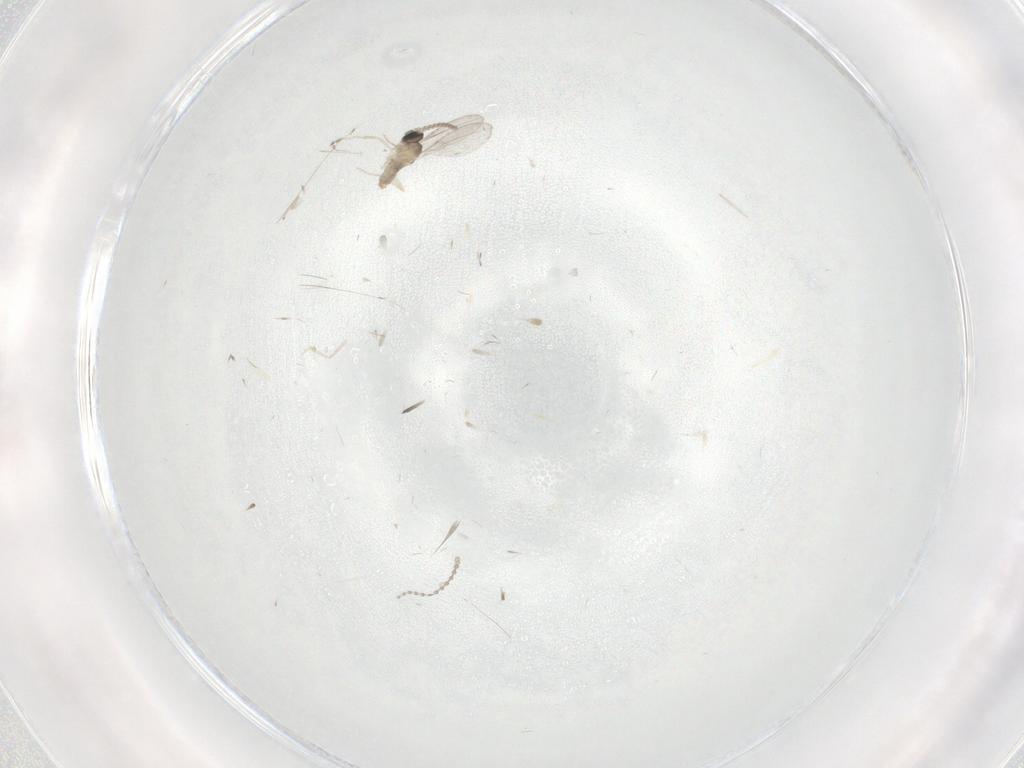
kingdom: Animalia
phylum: Arthropoda
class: Insecta
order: Diptera
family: Cecidomyiidae
